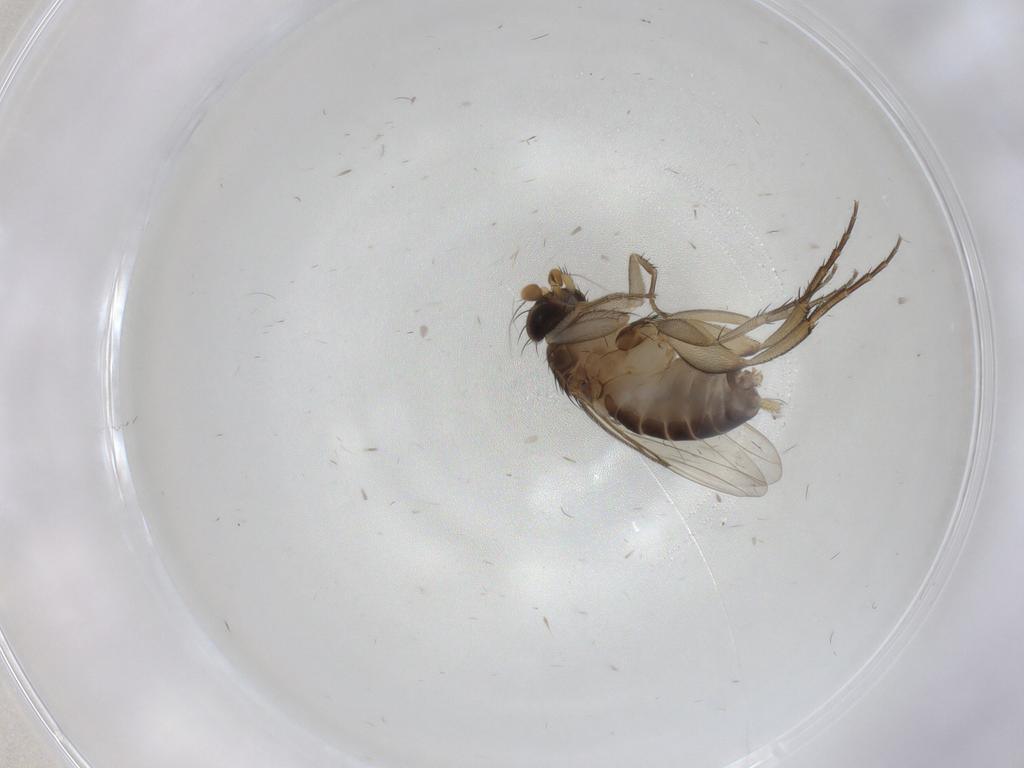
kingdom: Animalia
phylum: Arthropoda
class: Insecta
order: Diptera
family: Phoridae
